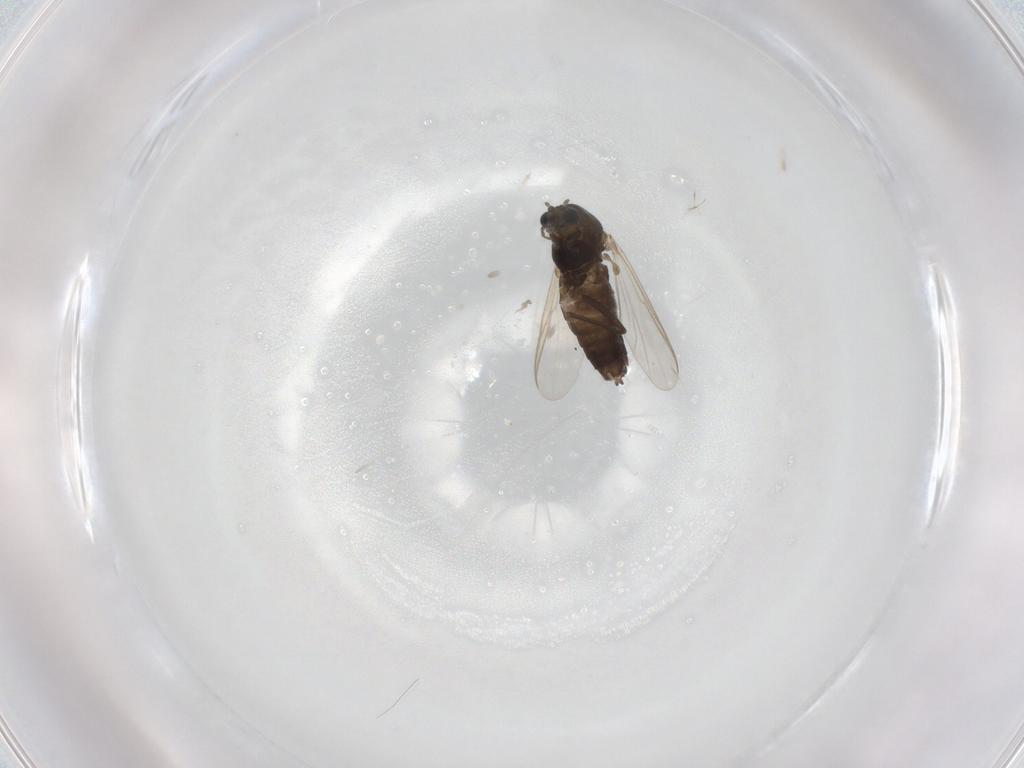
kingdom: Animalia
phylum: Arthropoda
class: Insecta
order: Diptera
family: Chironomidae
